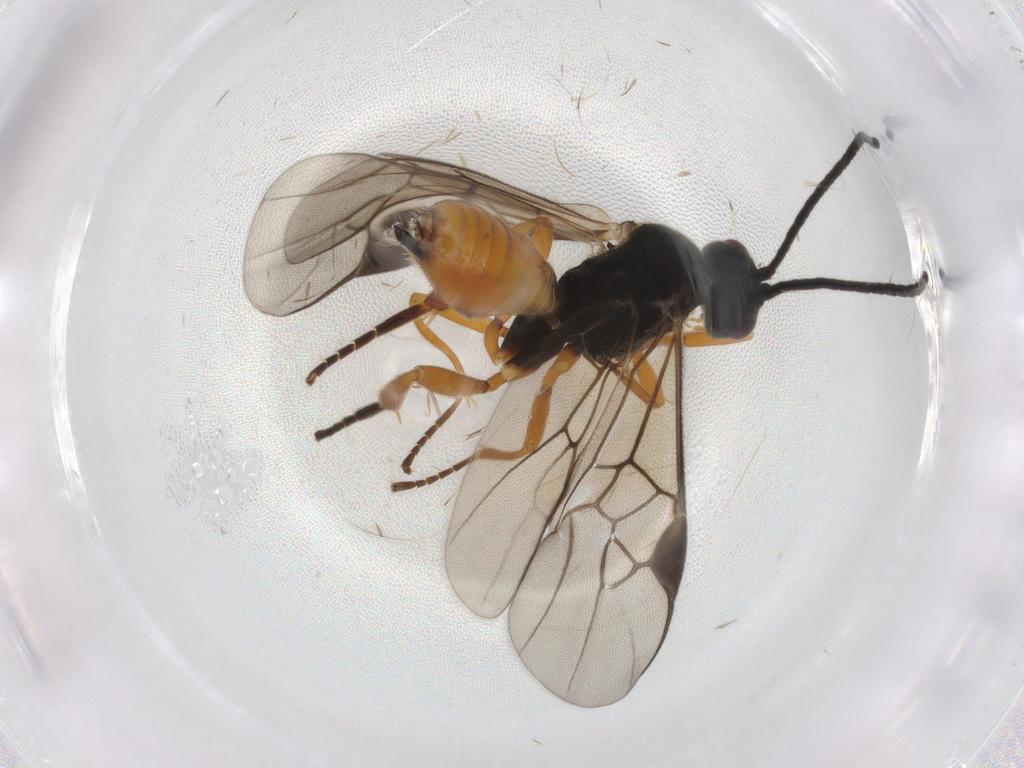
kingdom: Animalia
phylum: Arthropoda
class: Insecta
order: Hymenoptera
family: Braconidae
